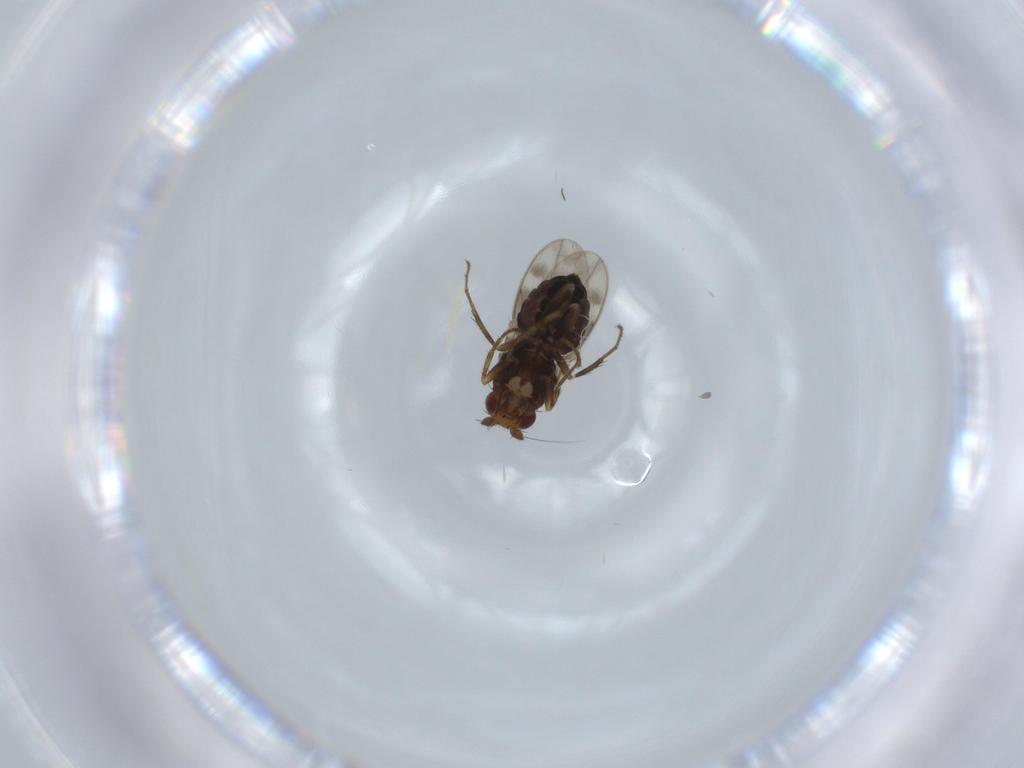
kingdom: Animalia
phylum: Arthropoda
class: Insecta
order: Diptera
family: Sphaeroceridae
